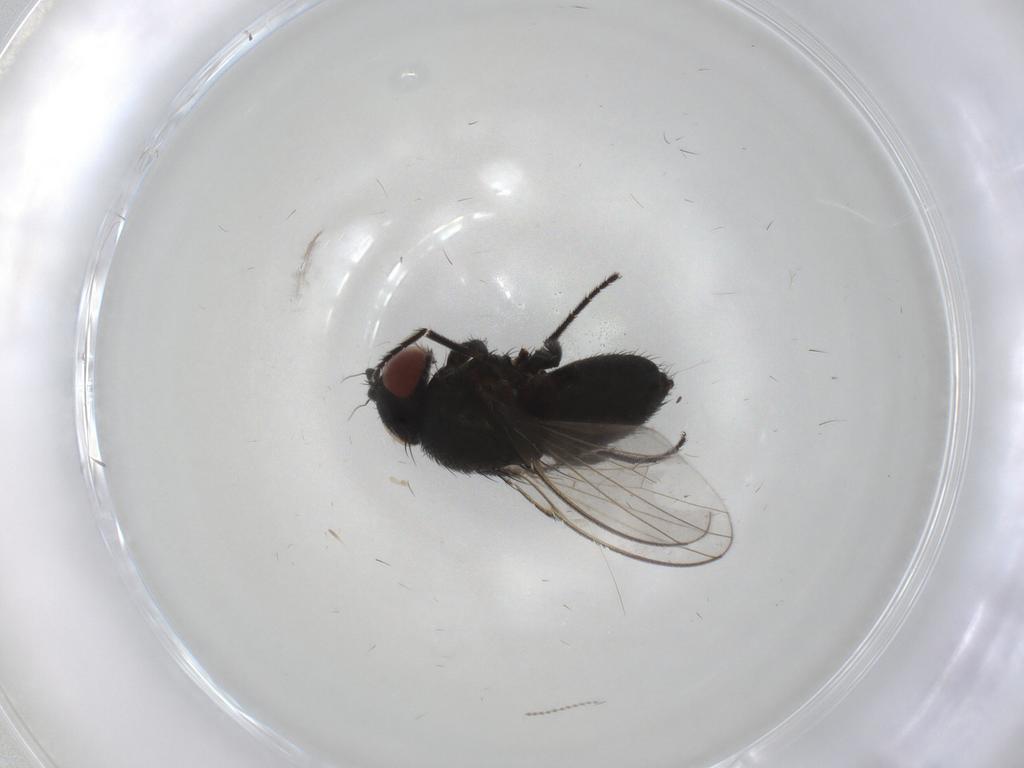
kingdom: Animalia
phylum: Arthropoda
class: Insecta
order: Diptera
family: Milichiidae
